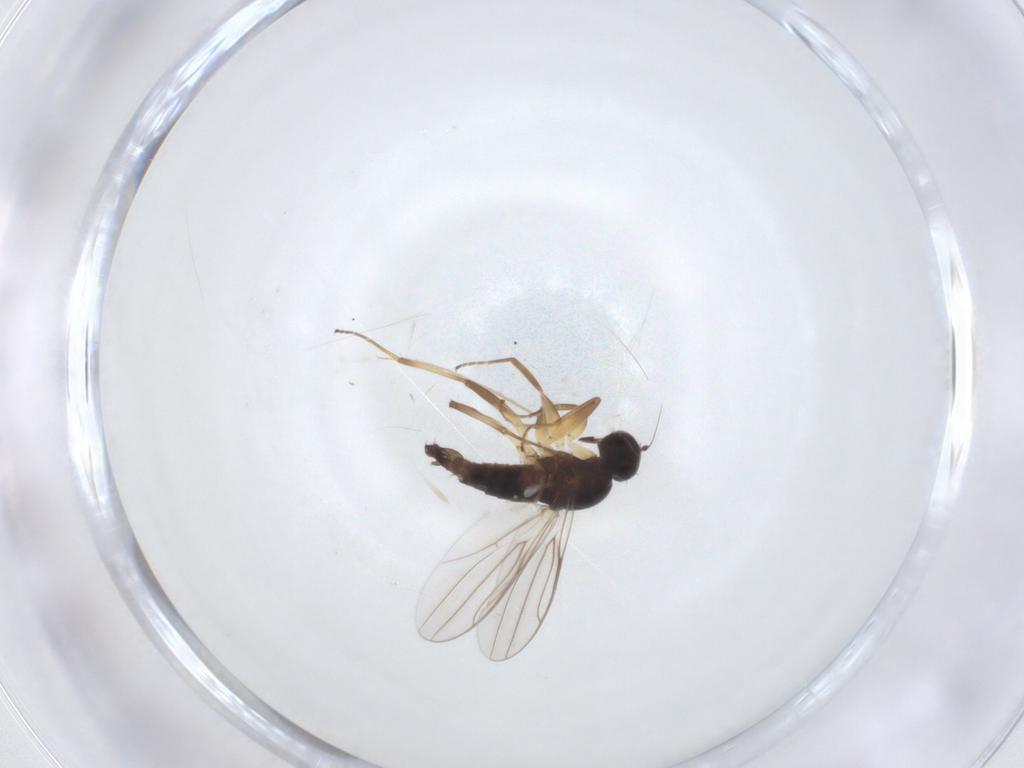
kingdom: Animalia
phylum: Arthropoda
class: Insecta
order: Diptera
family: Hybotidae
